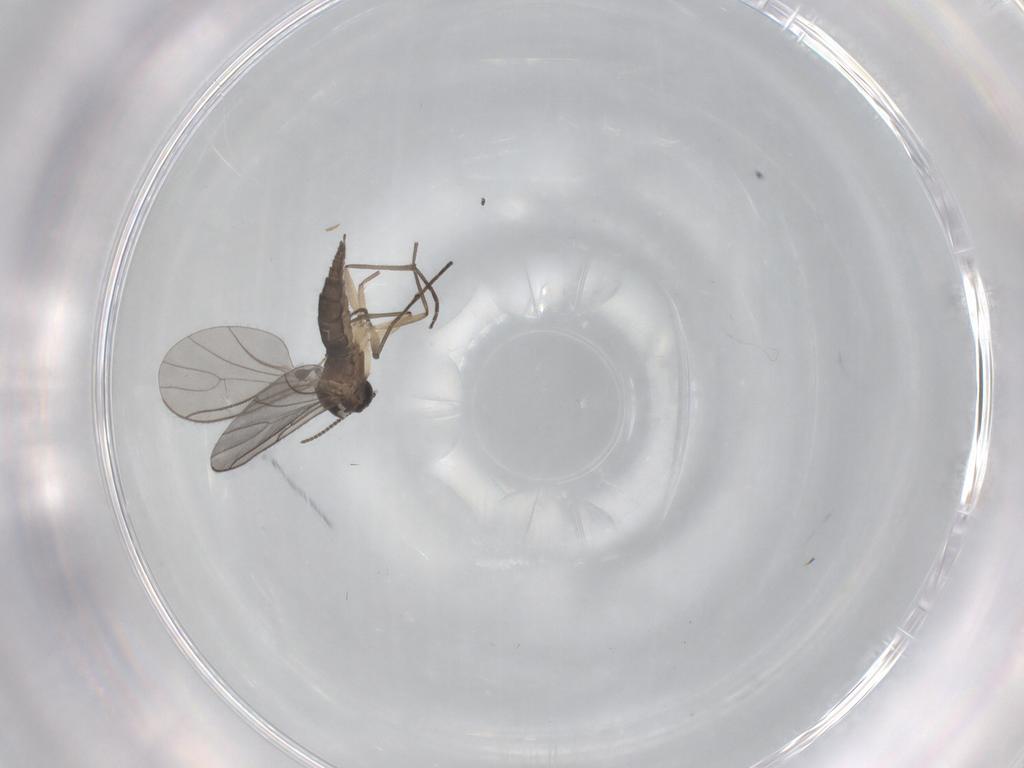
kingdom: Animalia
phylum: Arthropoda
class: Insecta
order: Diptera
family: Sciaridae
